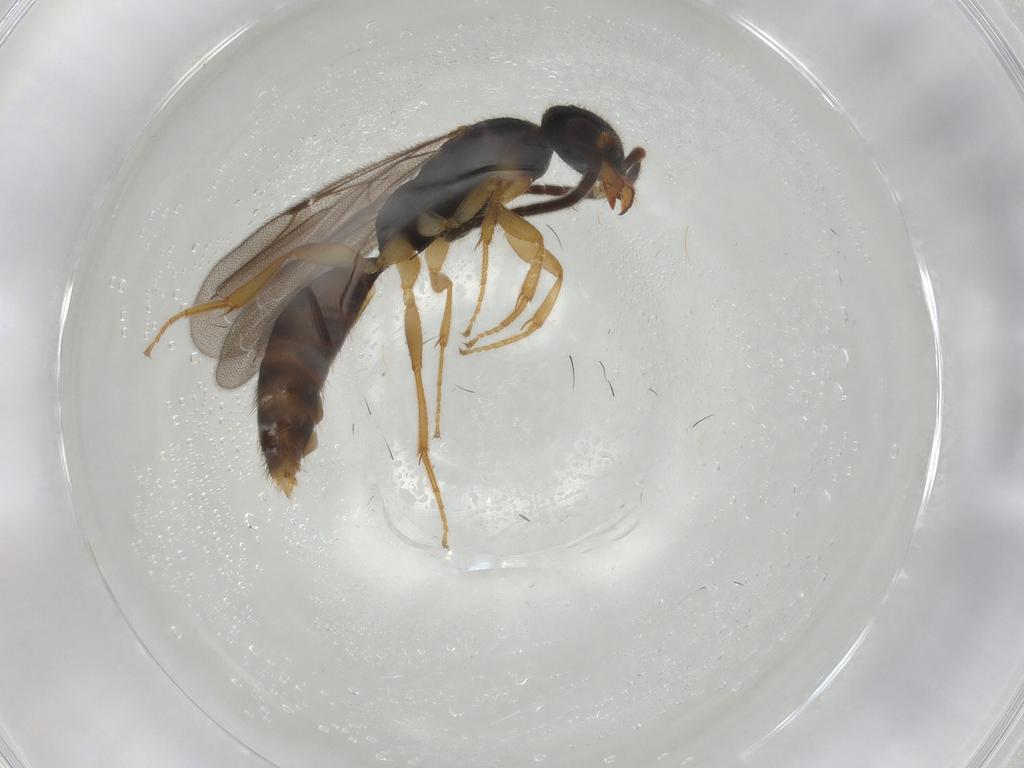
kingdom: Animalia
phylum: Arthropoda
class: Insecta
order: Hymenoptera
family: Bethylidae
